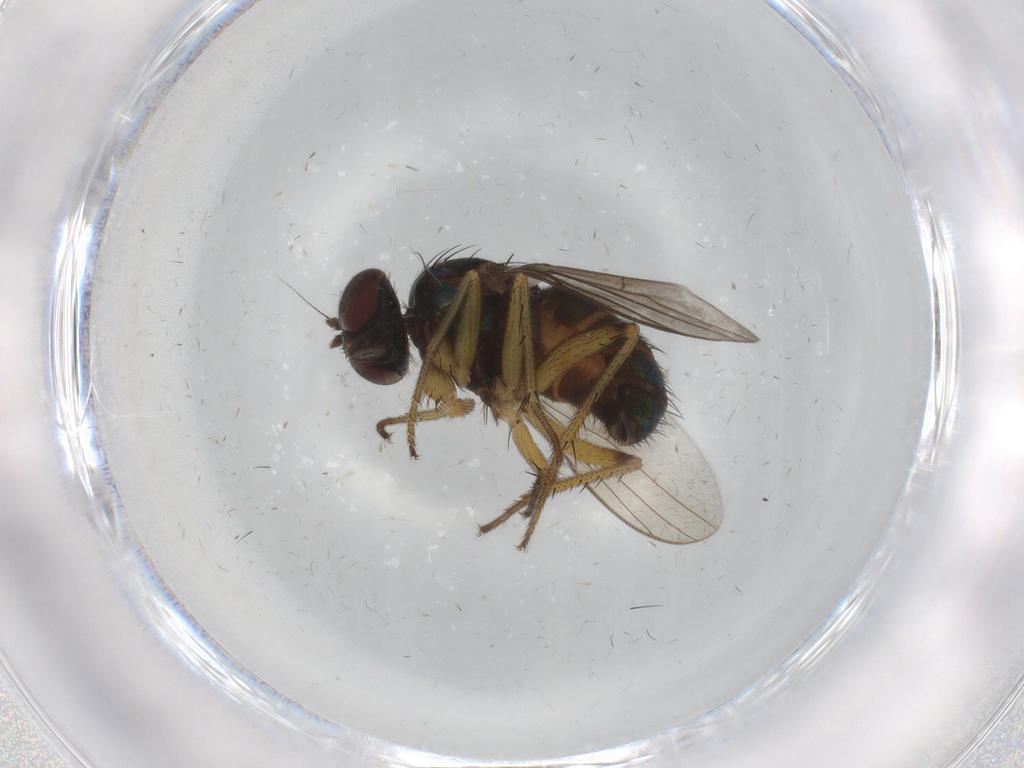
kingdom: Animalia
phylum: Arthropoda
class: Insecta
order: Diptera
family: Dolichopodidae
